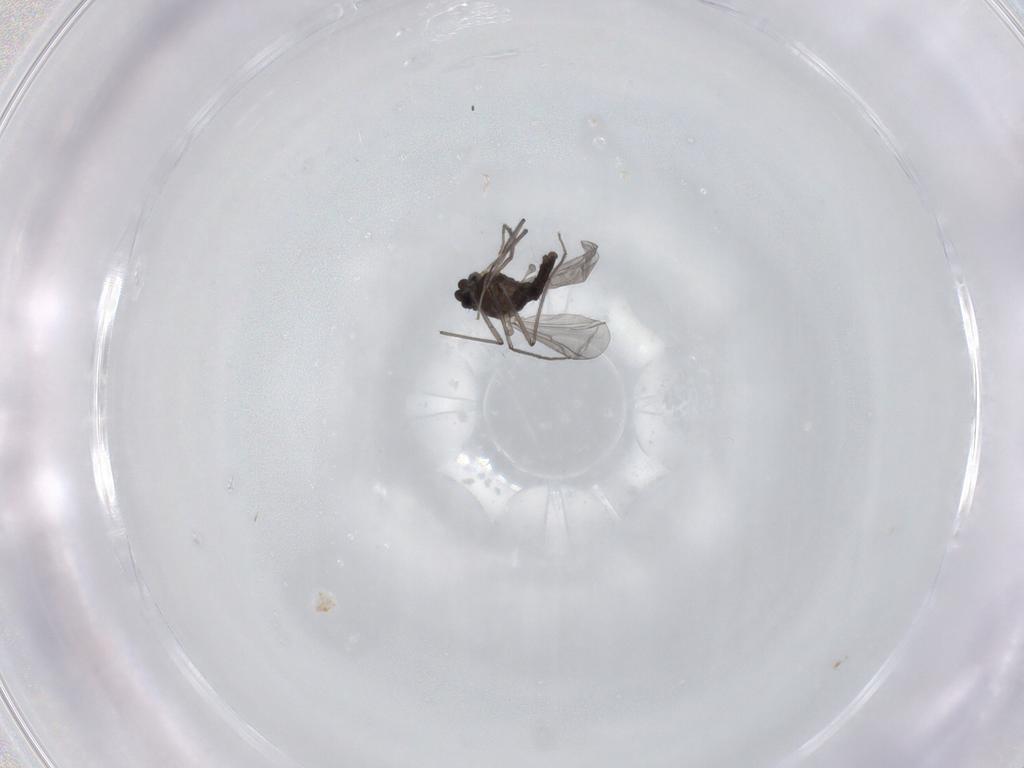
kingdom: Animalia
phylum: Arthropoda
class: Insecta
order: Diptera
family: Chironomidae
